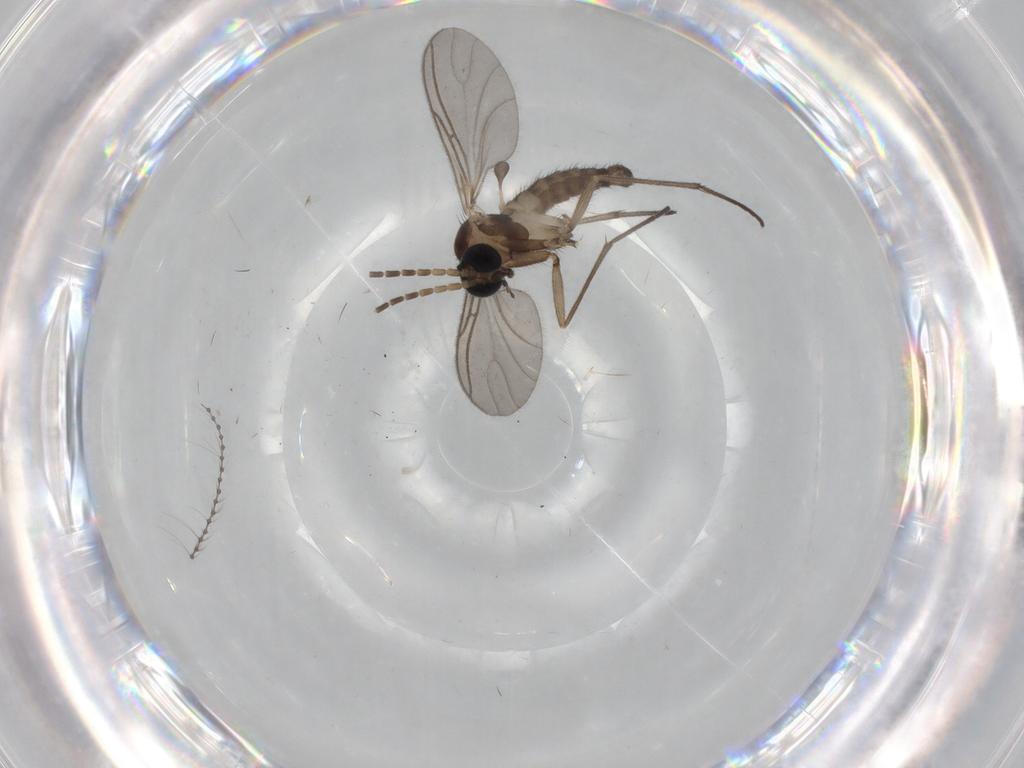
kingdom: Animalia
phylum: Arthropoda
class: Insecta
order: Diptera
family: Sciaridae
